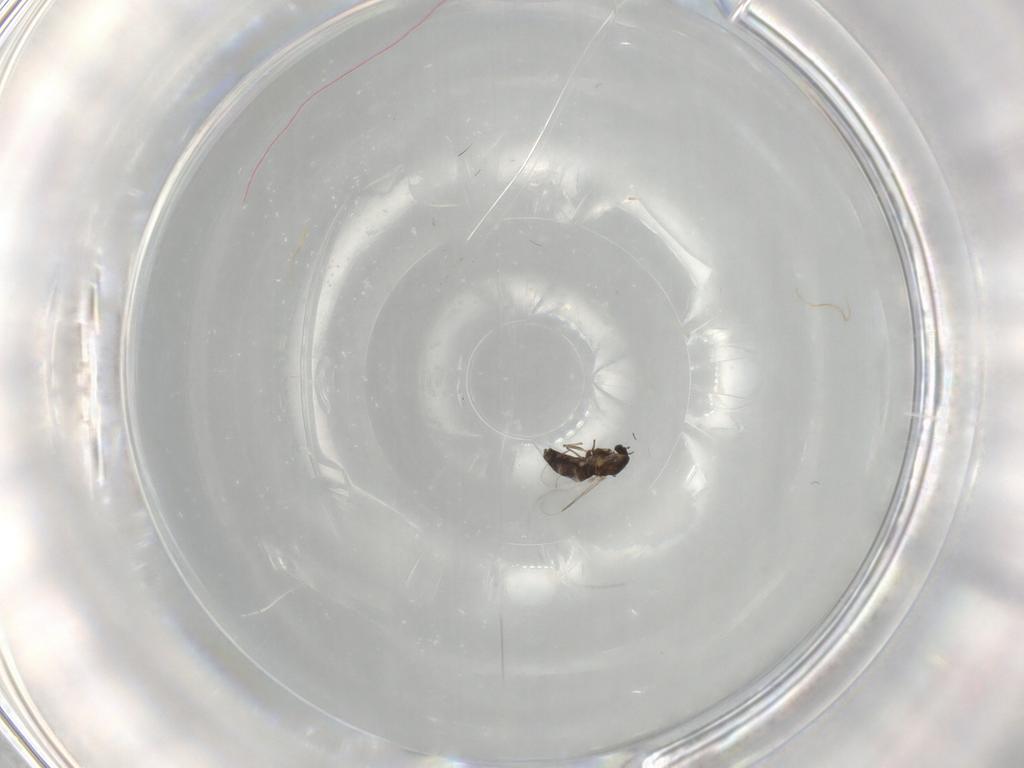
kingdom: Animalia
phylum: Arthropoda
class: Insecta
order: Diptera
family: Chironomidae
